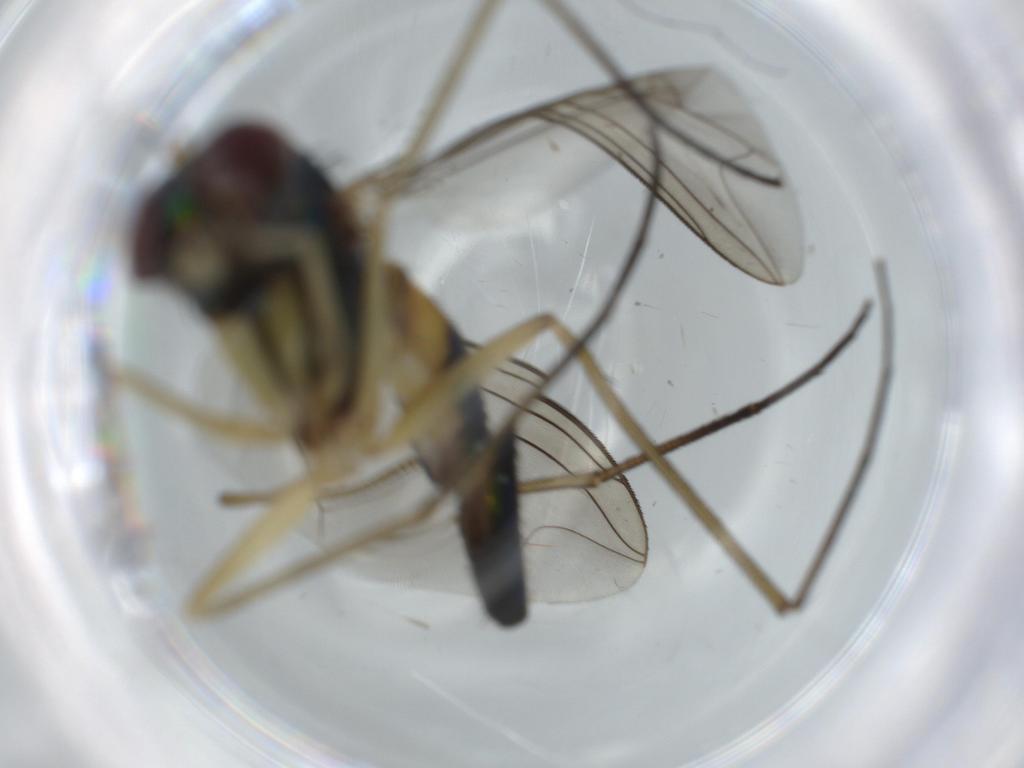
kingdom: Animalia
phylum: Arthropoda
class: Insecta
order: Diptera
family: Dolichopodidae
